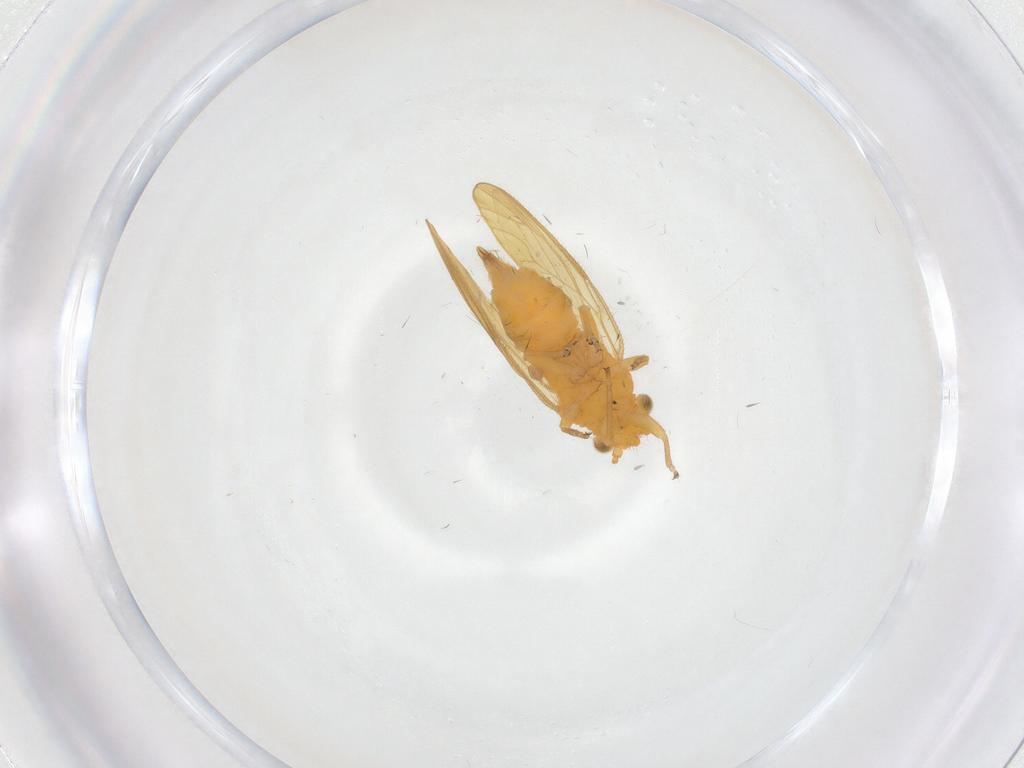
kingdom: Animalia
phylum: Arthropoda
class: Insecta
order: Hemiptera
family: Psyllidae
